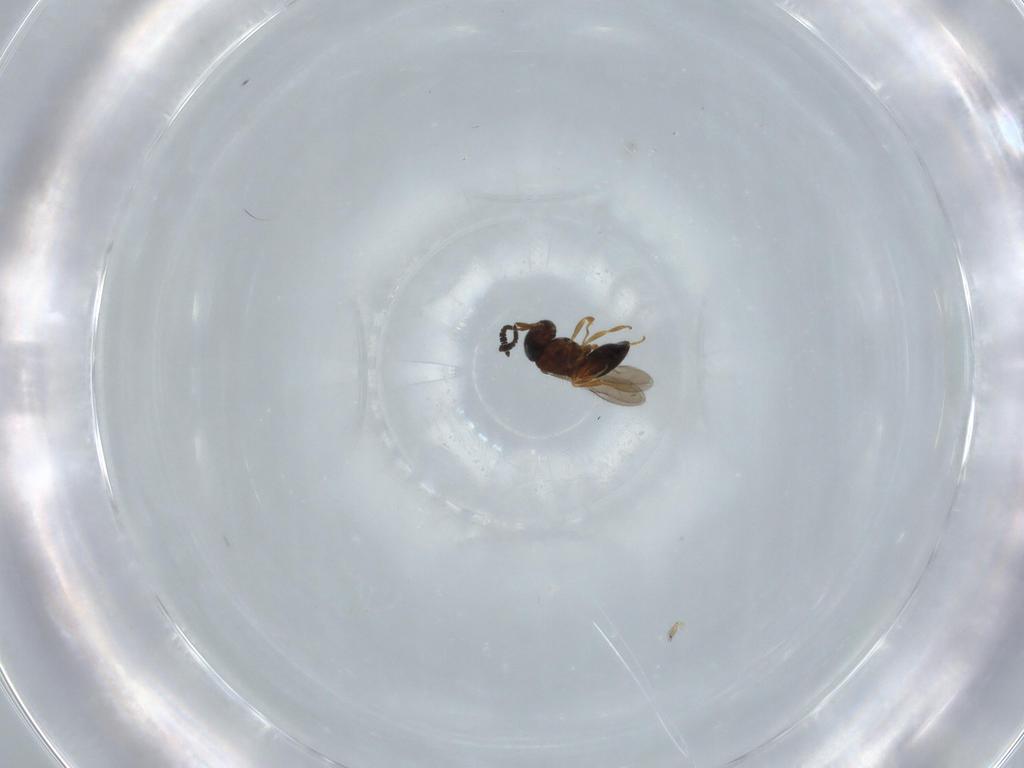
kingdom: Animalia
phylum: Arthropoda
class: Insecta
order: Hymenoptera
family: Scelionidae
